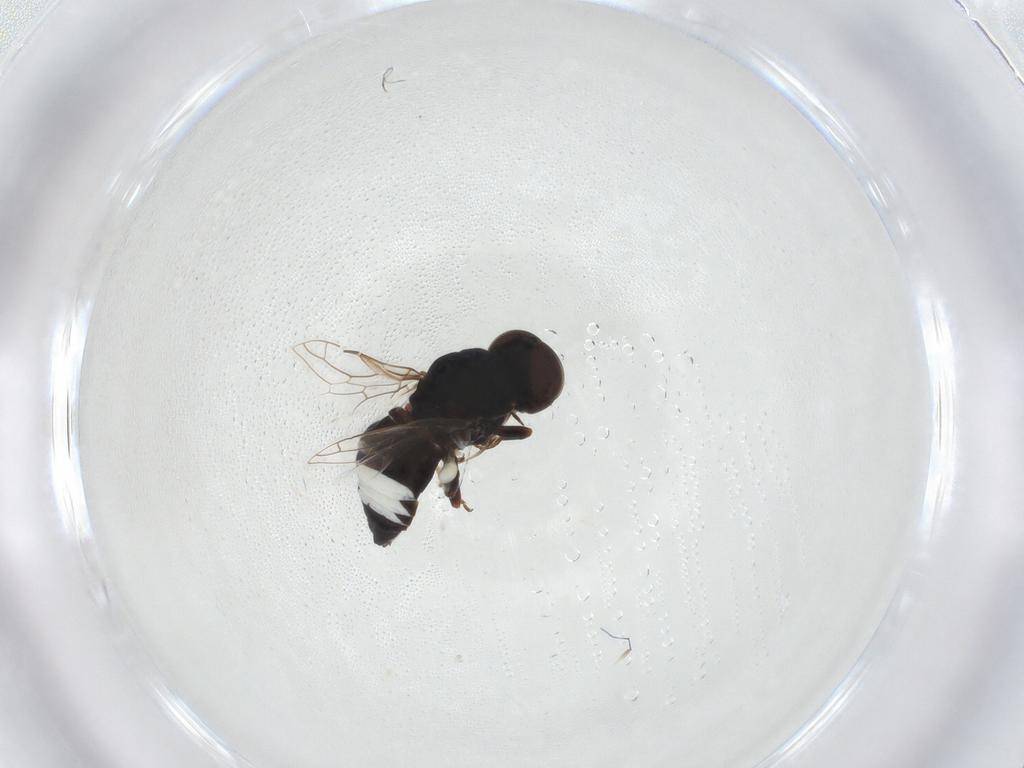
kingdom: Animalia
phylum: Arthropoda
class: Insecta
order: Diptera
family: Scenopinidae
